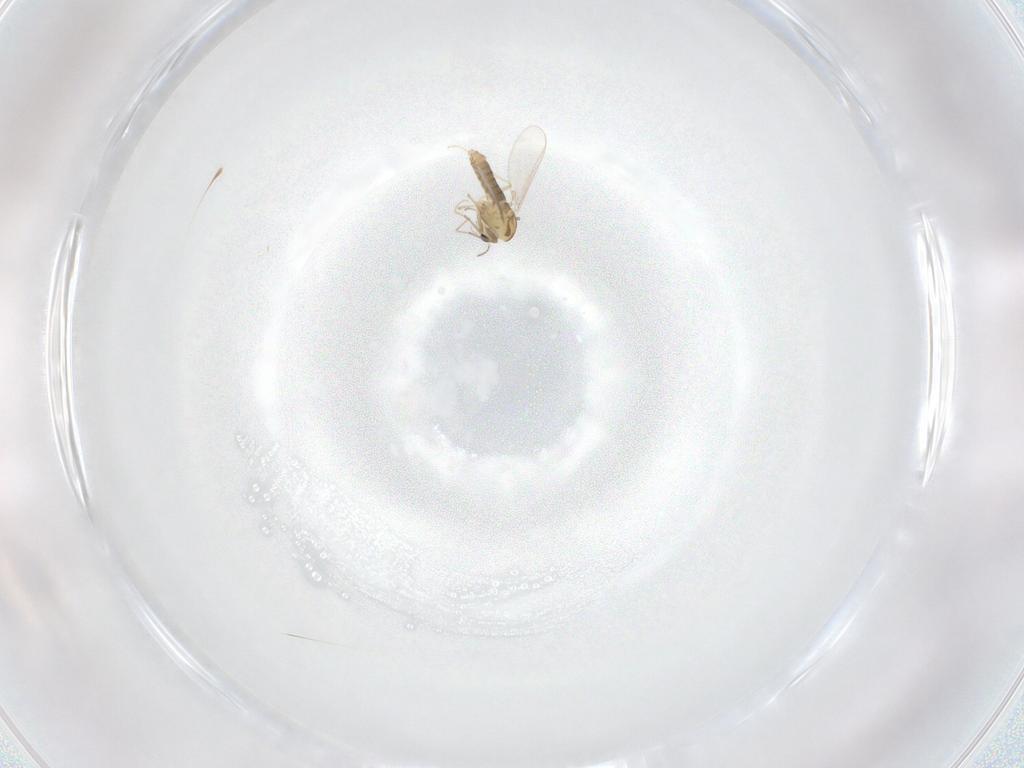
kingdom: Animalia
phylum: Arthropoda
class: Insecta
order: Diptera
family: Chironomidae
